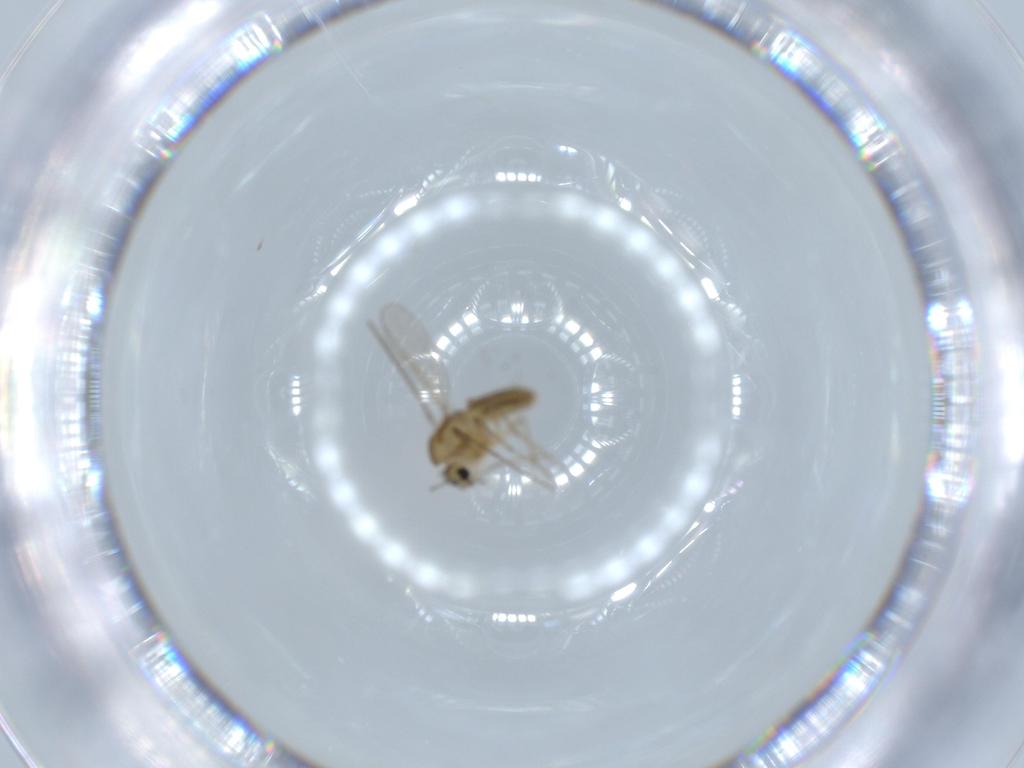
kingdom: Animalia
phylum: Arthropoda
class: Insecta
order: Diptera
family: Chironomidae
